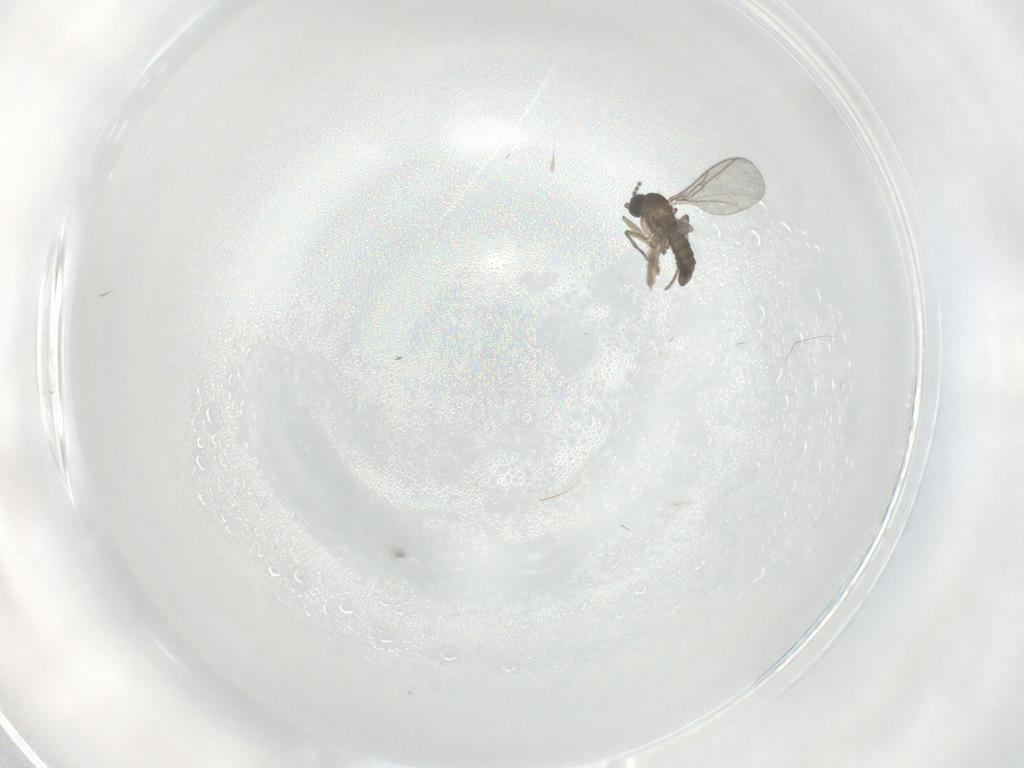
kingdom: Animalia
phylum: Arthropoda
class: Insecta
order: Diptera
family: Sciaridae
